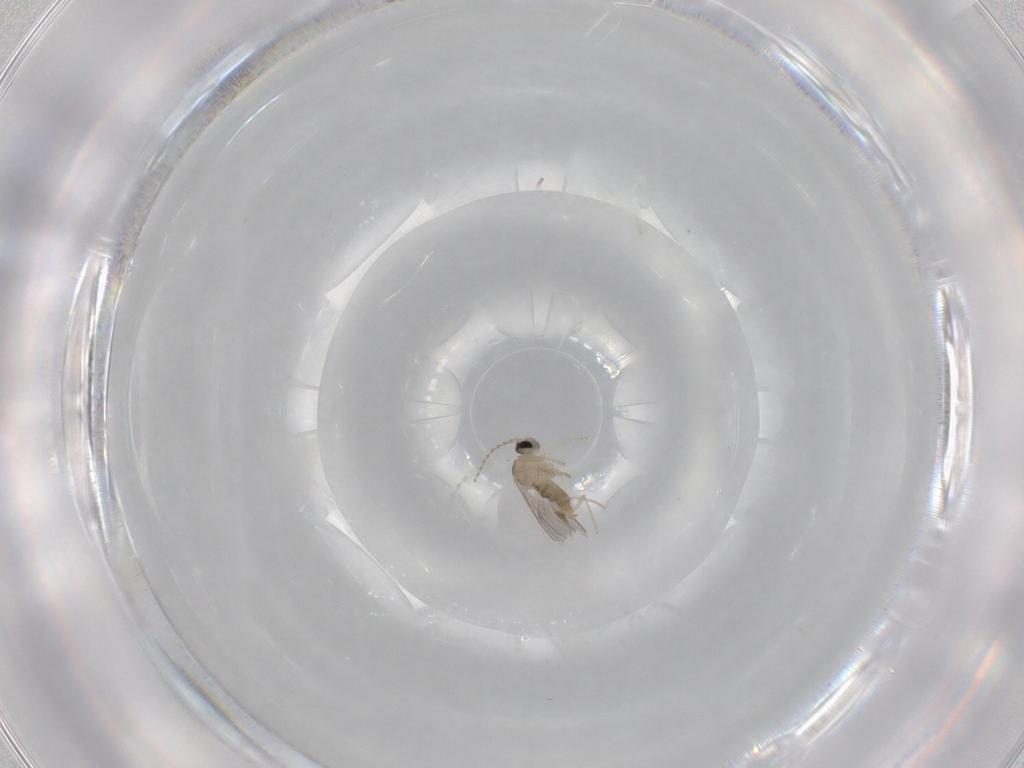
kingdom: Animalia
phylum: Arthropoda
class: Insecta
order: Diptera
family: Cecidomyiidae
